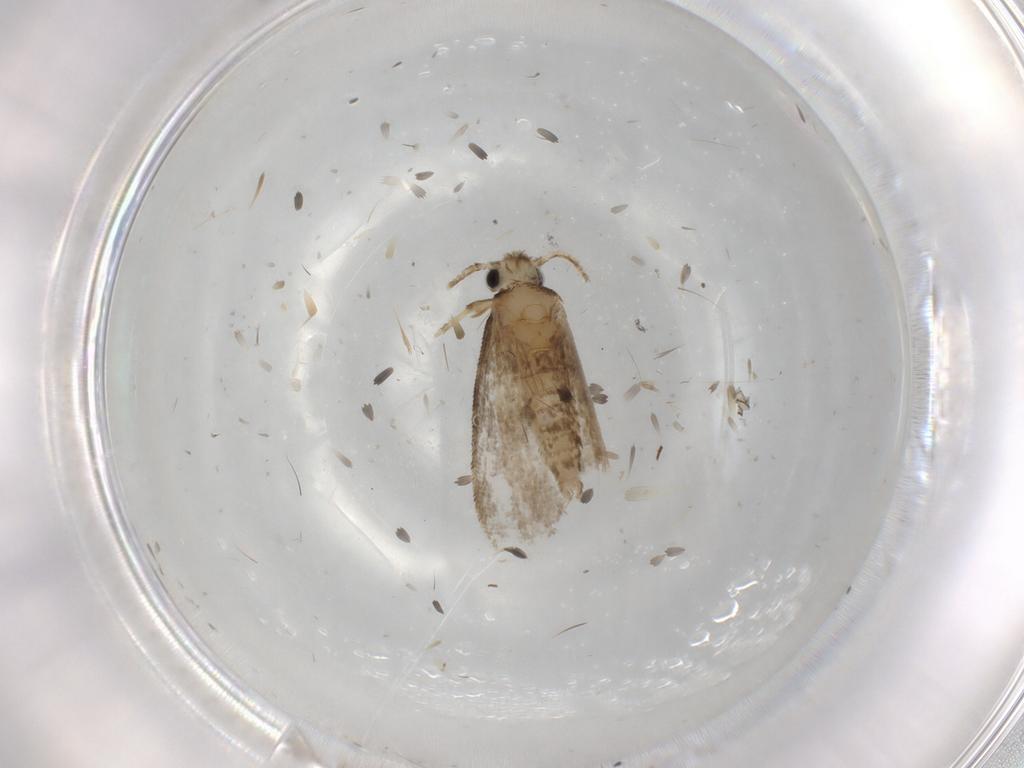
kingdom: Animalia
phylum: Arthropoda
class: Insecta
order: Lepidoptera
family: Psychidae
